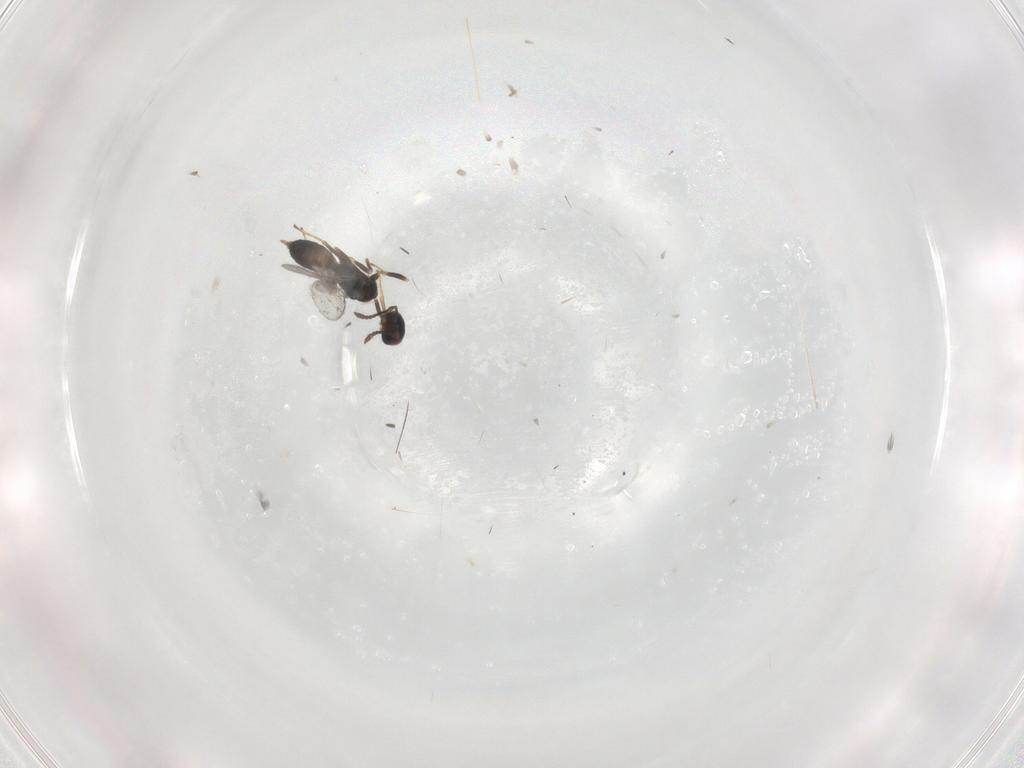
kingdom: Animalia
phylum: Arthropoda
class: Insecta
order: Hymenoptera
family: Pteromalidae
